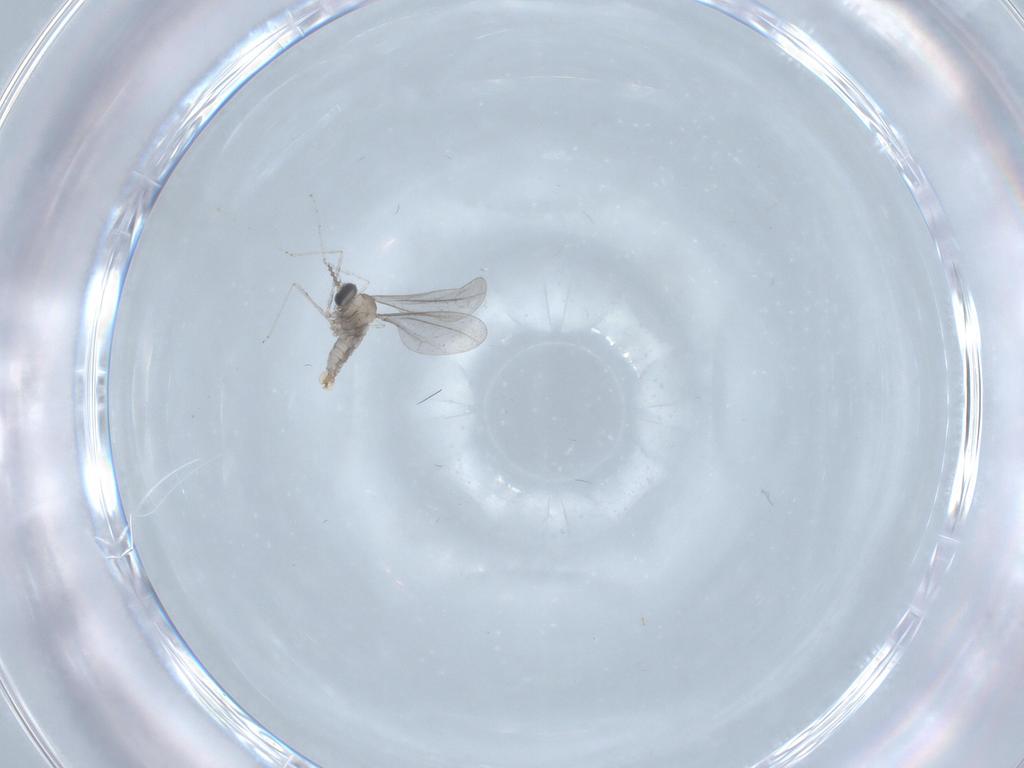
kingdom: Animalia
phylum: Arthropoda
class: Insecta
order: Diptera
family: Cecidomyiidae
